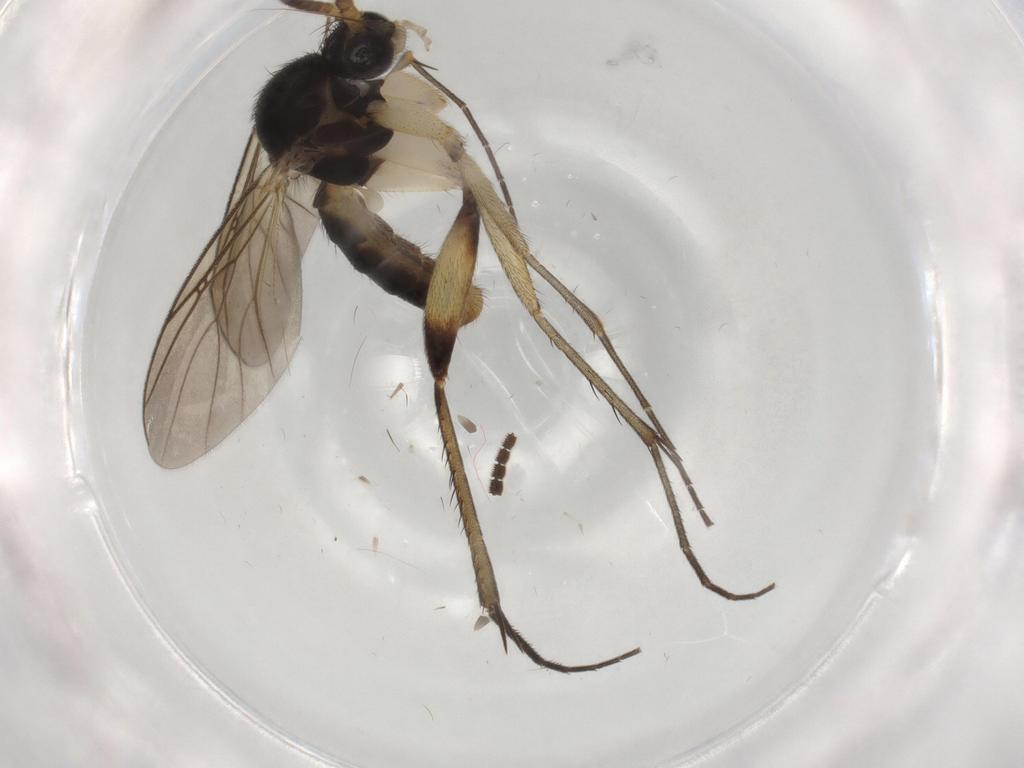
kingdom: Animalia
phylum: Arthropoda
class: Insecta
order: Diptera
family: Mycetophilidae
